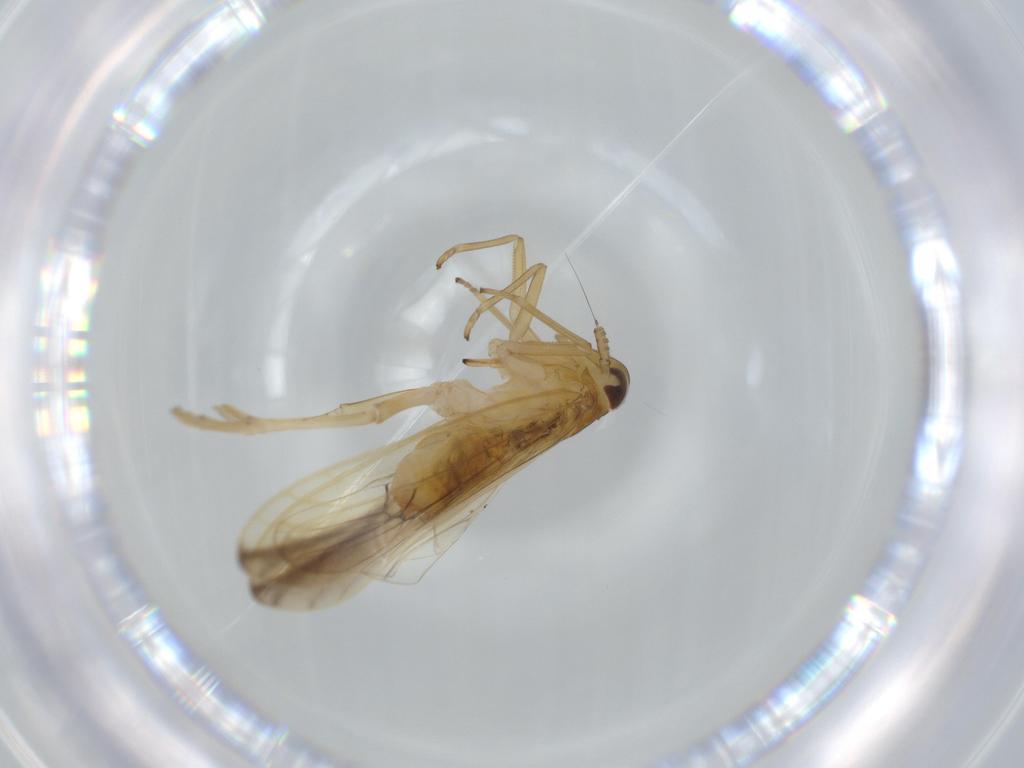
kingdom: Animalia
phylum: Arthropoda
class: Insecta
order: Hemiptera
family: Delphacidae
